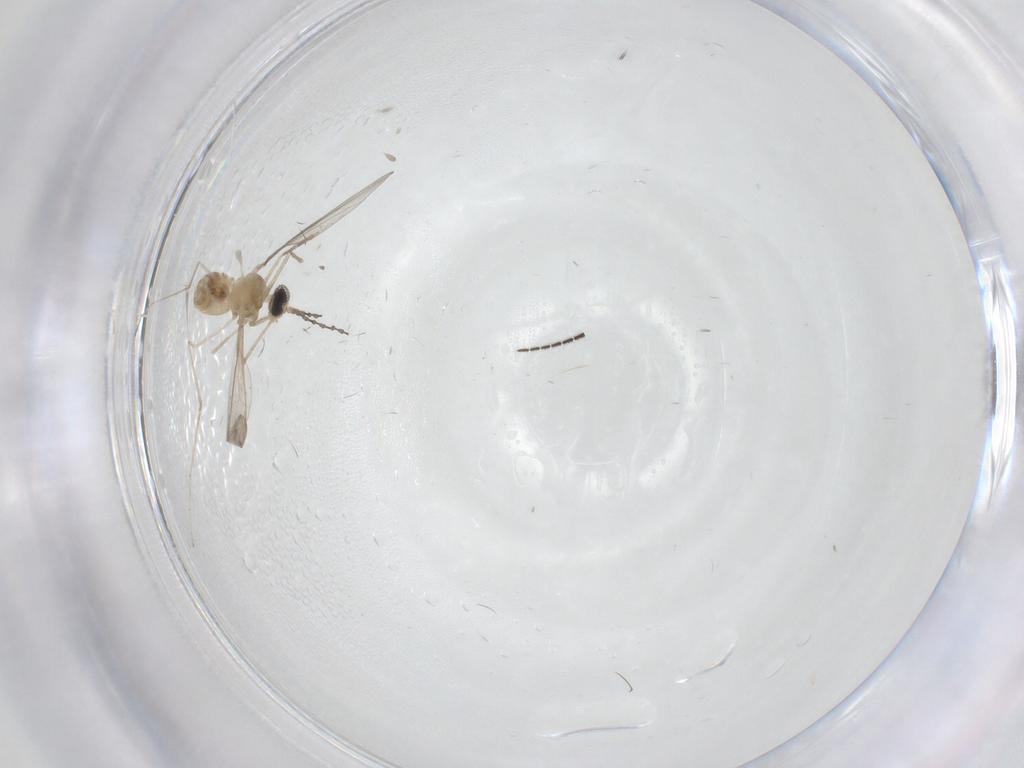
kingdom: Animalia
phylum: Arthropoda
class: Insecta
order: Diptera
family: Cecidomyiidae
